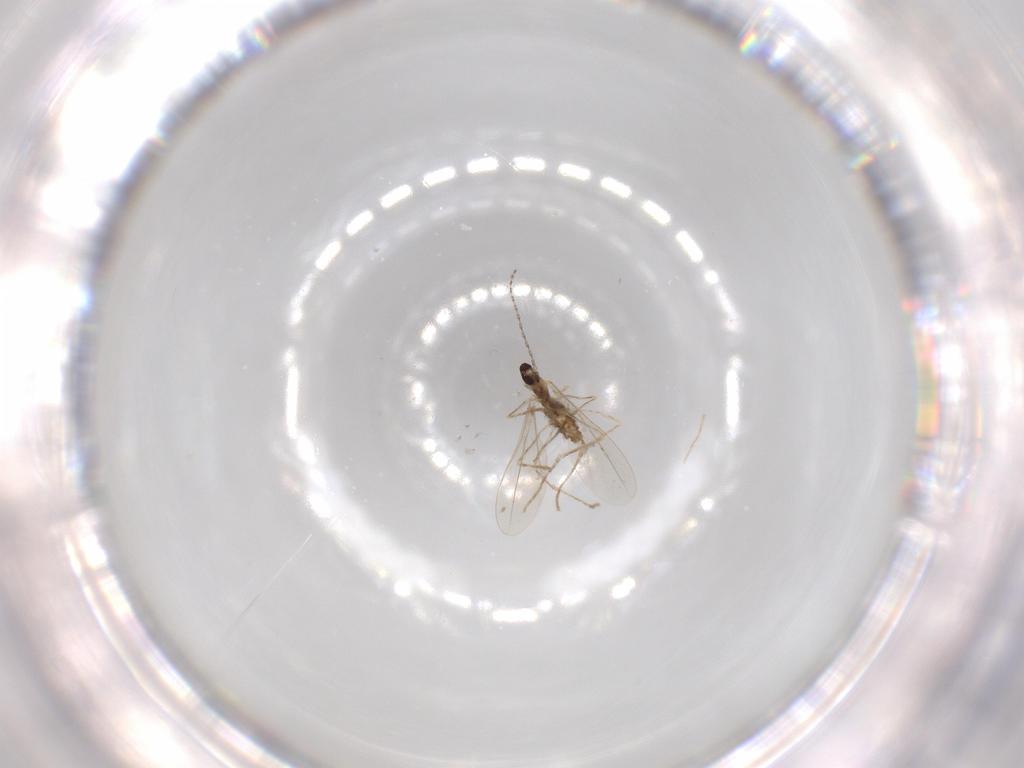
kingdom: Animalia
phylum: Arthropoda
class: Insecta
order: Diptera
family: Cecidomyiidae
